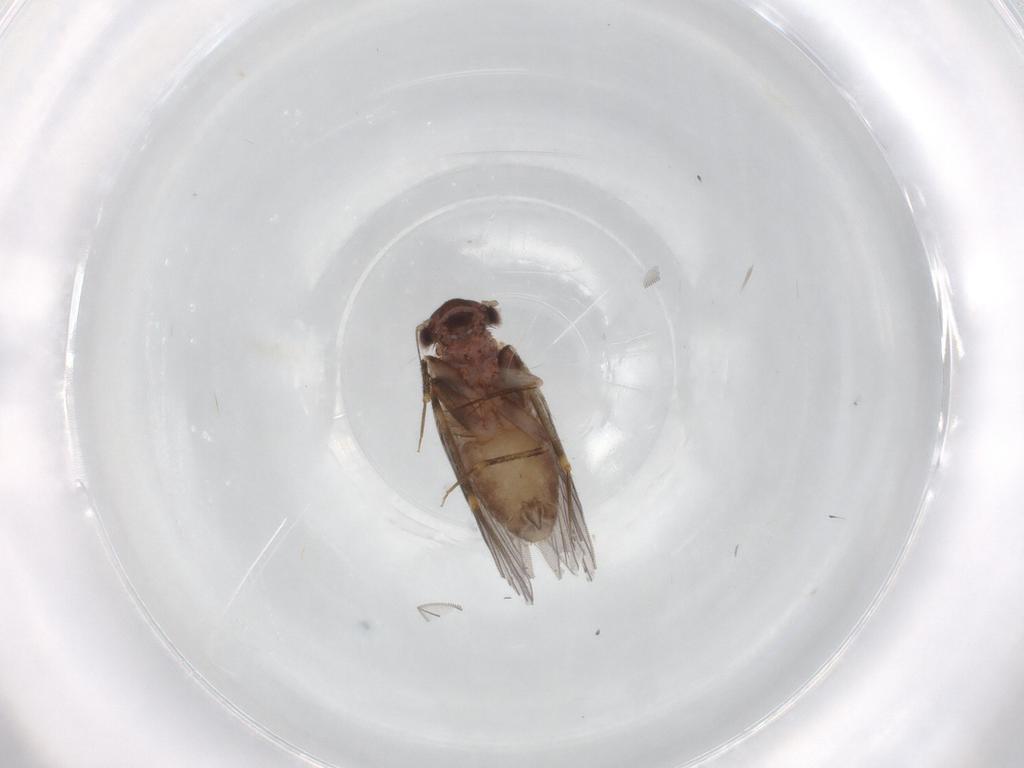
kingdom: Animalia
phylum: Arthropoda
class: Insecta
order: Psocodea
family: Lepidopsocidae
